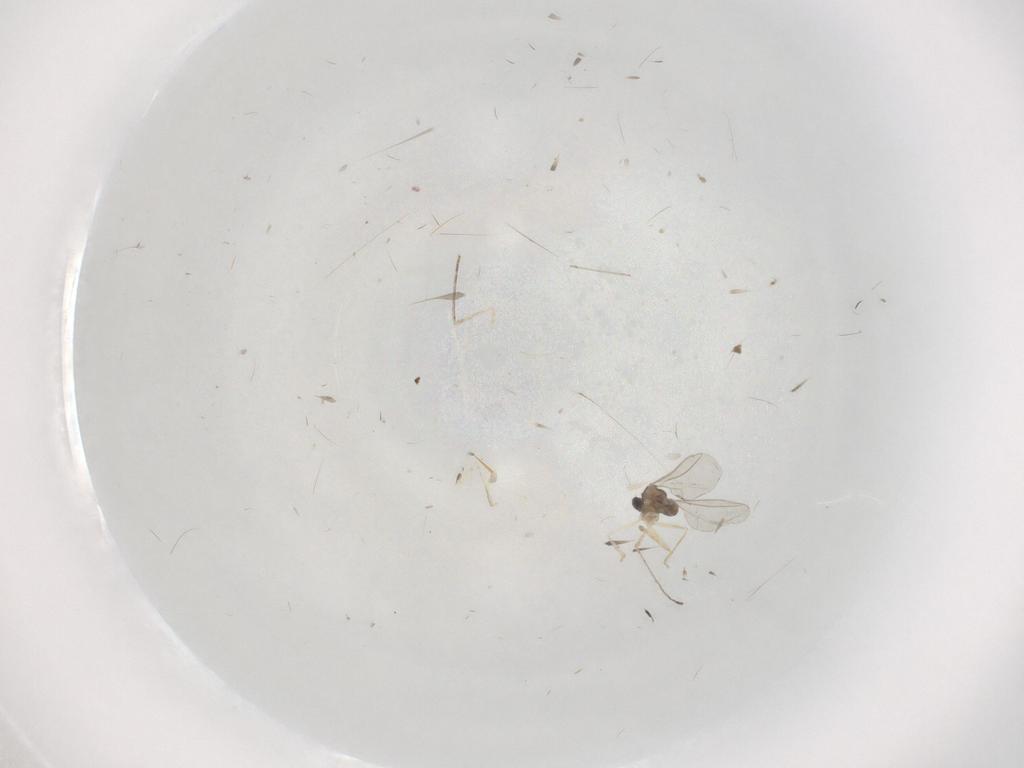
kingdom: Animalia
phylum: Arthropoda
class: Insecta
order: Diptera
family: Cecidomyiidae
